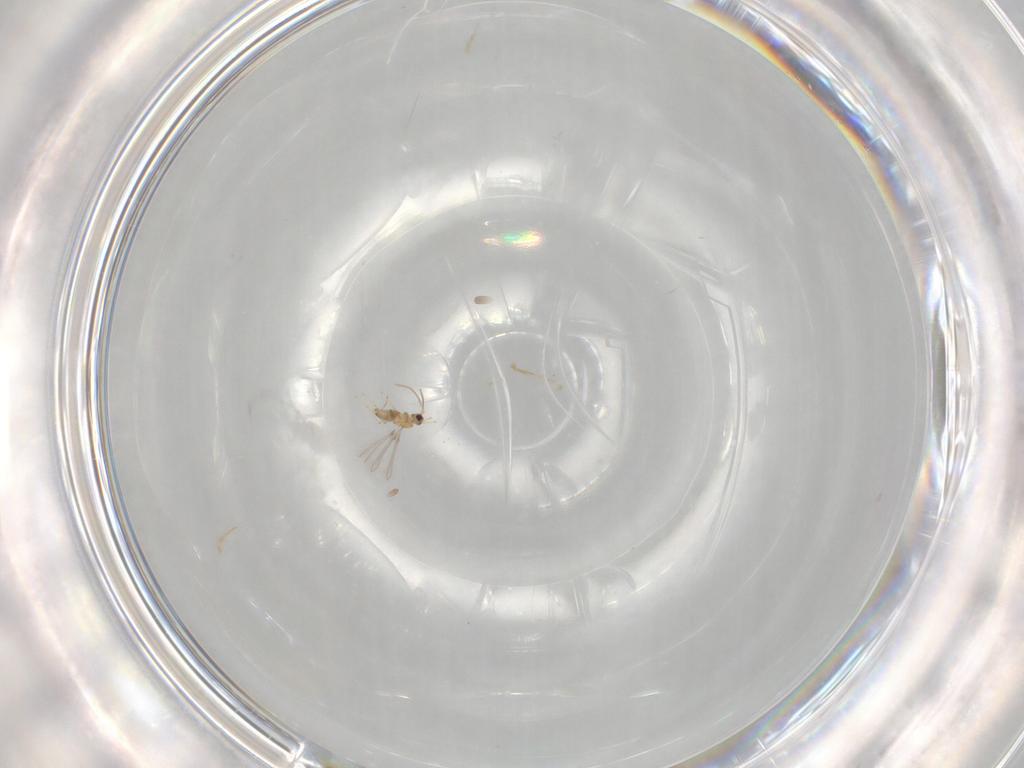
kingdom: Animalia
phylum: Arthropoda
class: Insecta
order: Hymenoptera
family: Mymaridae
